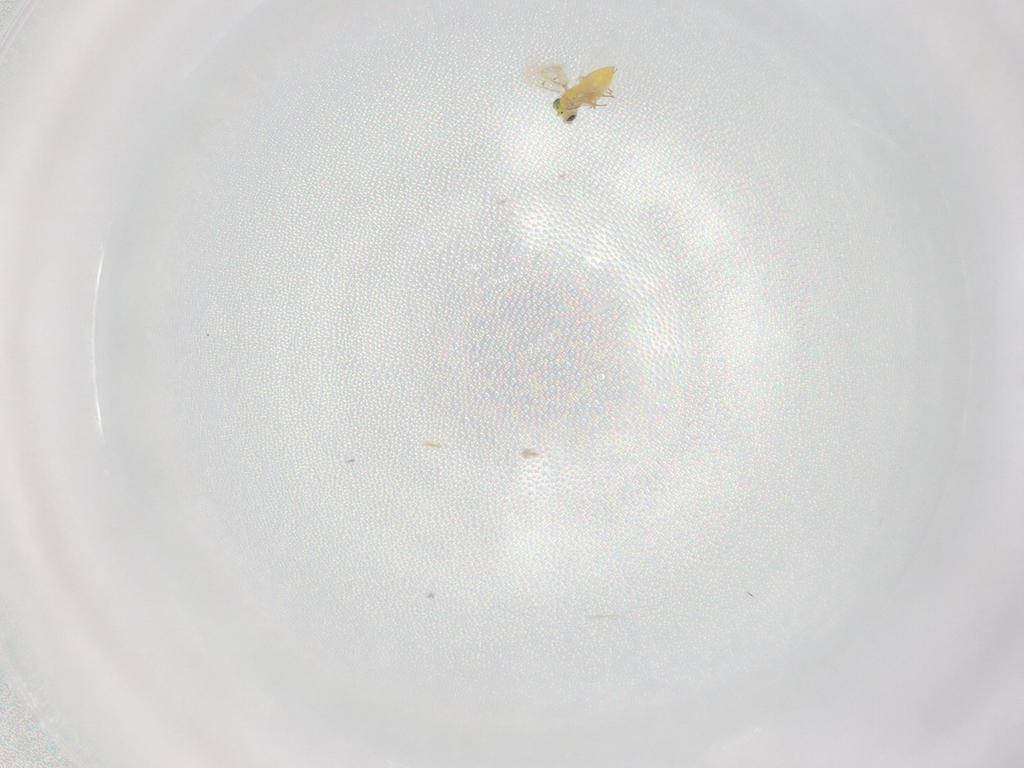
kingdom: Animalia
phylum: Arthropoda
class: Insecta
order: Hymenoptera
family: Trichogrammatidae
